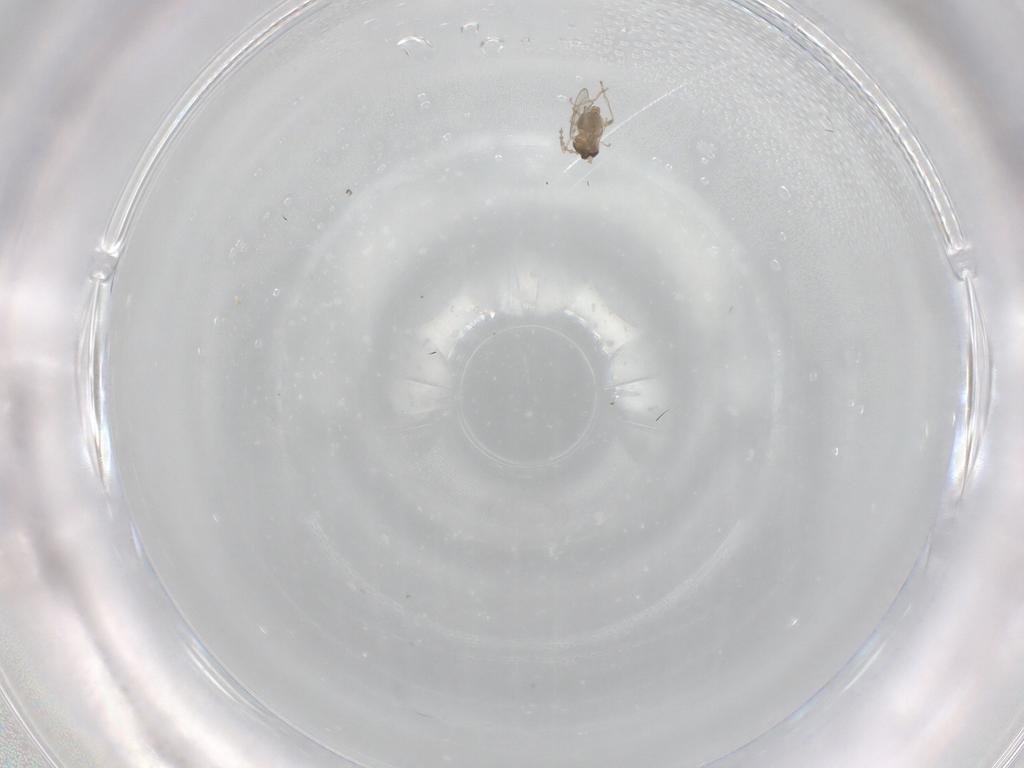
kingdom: Animalia
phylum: Arthropoda
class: Insecta
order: Diptera
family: Cecidomyiidae
